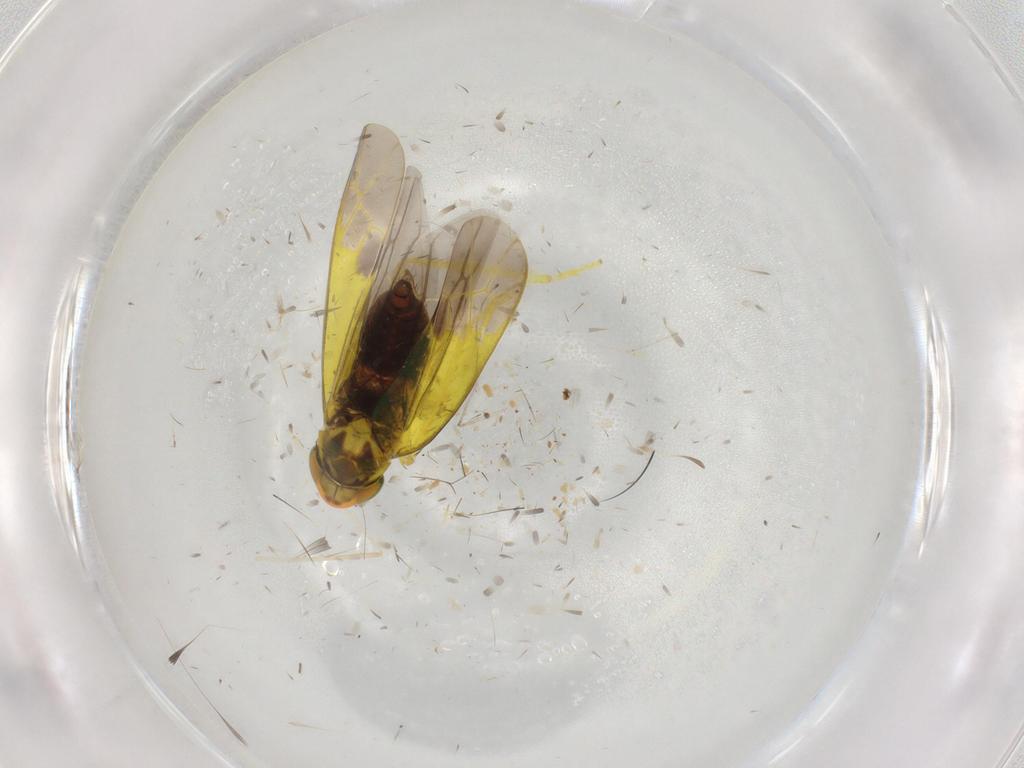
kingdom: Animalia
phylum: Arthropoda
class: Insecta
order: Hemiptera
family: Cicadellidae
